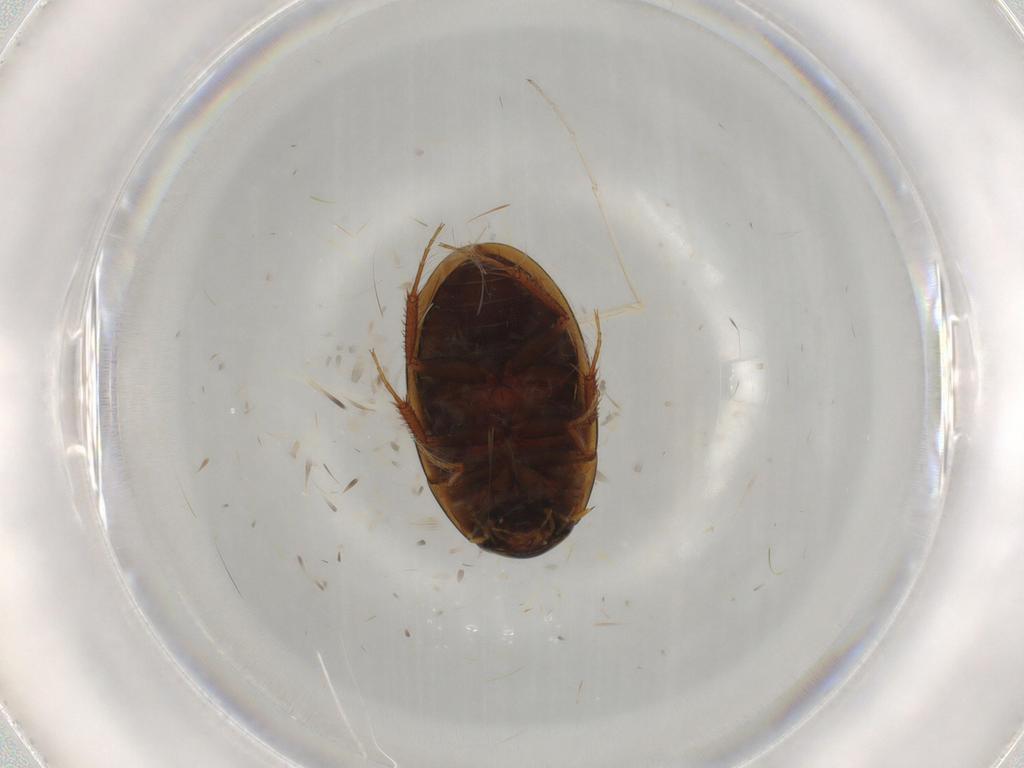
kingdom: Animalia
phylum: Arthropoda
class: Insecta
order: Coleoptera
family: Hydrophilidae
